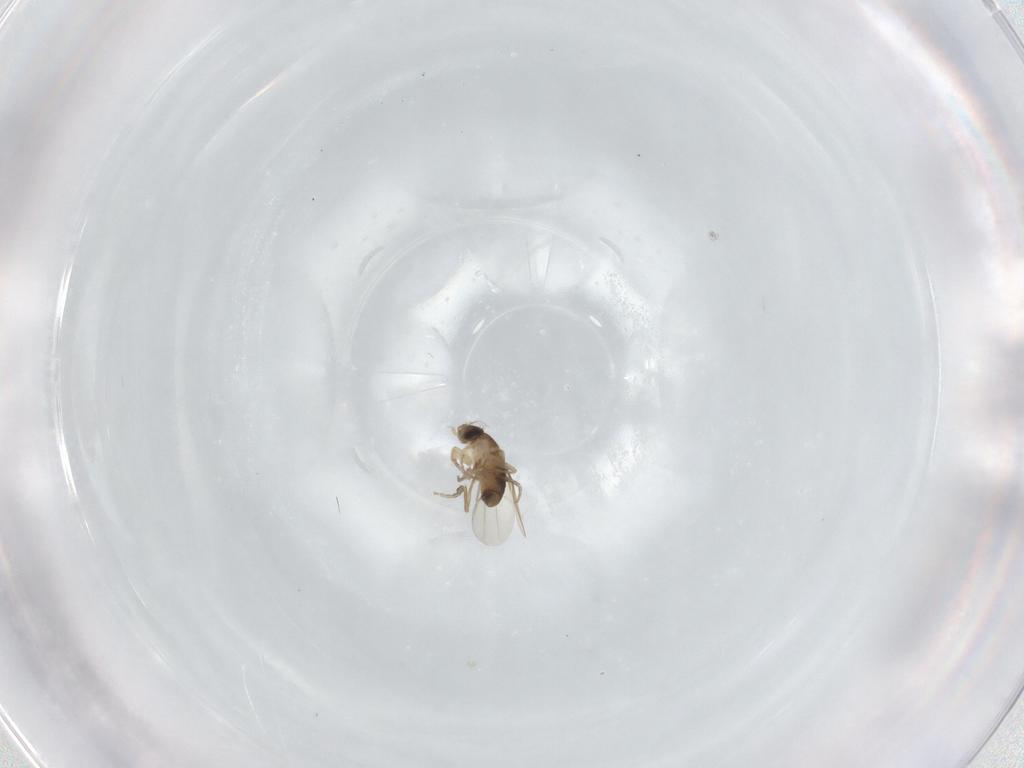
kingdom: Animalia
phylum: Arthropoda
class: Insecta
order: Diptera
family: Phoridae
